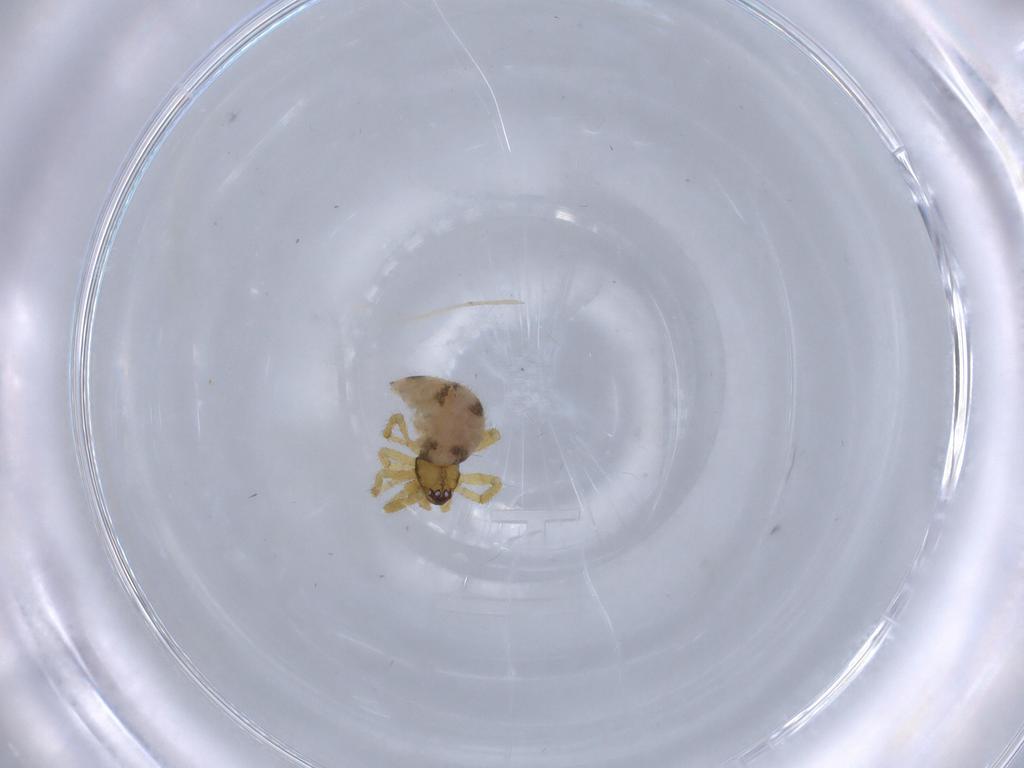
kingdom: Animalia
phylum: Arthropoda
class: Arachnida
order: Araneae
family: Theridiidae
